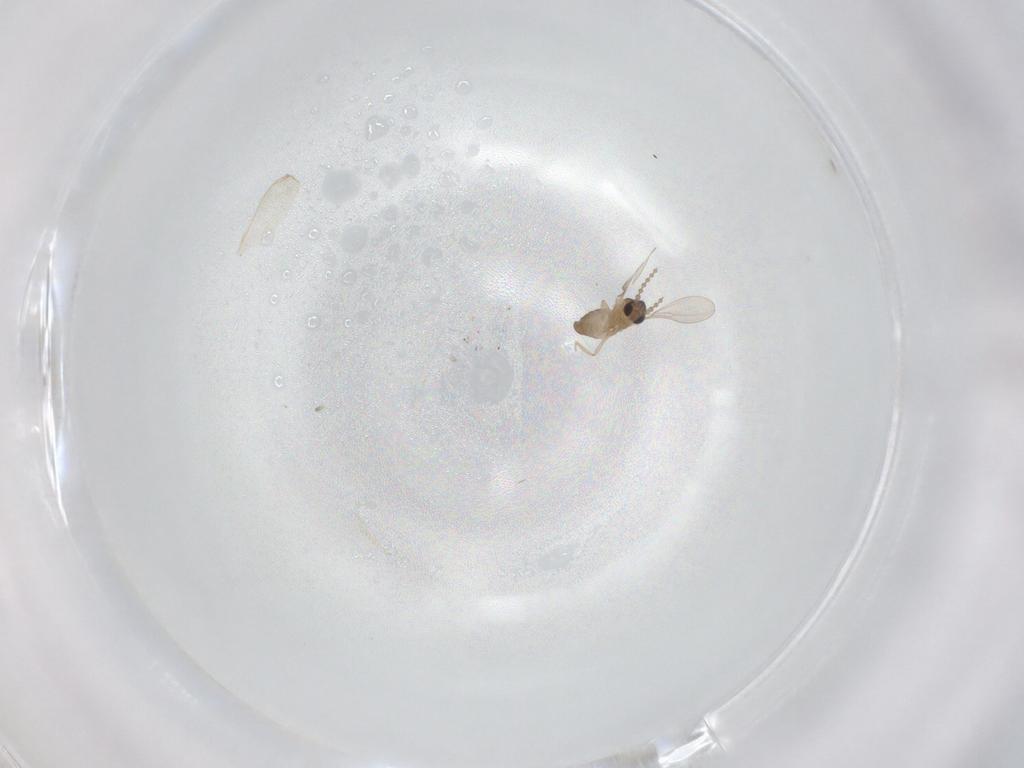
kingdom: Animalia
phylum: Arthropoda
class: Insecta
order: Diptera
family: Cecidomyiidae
